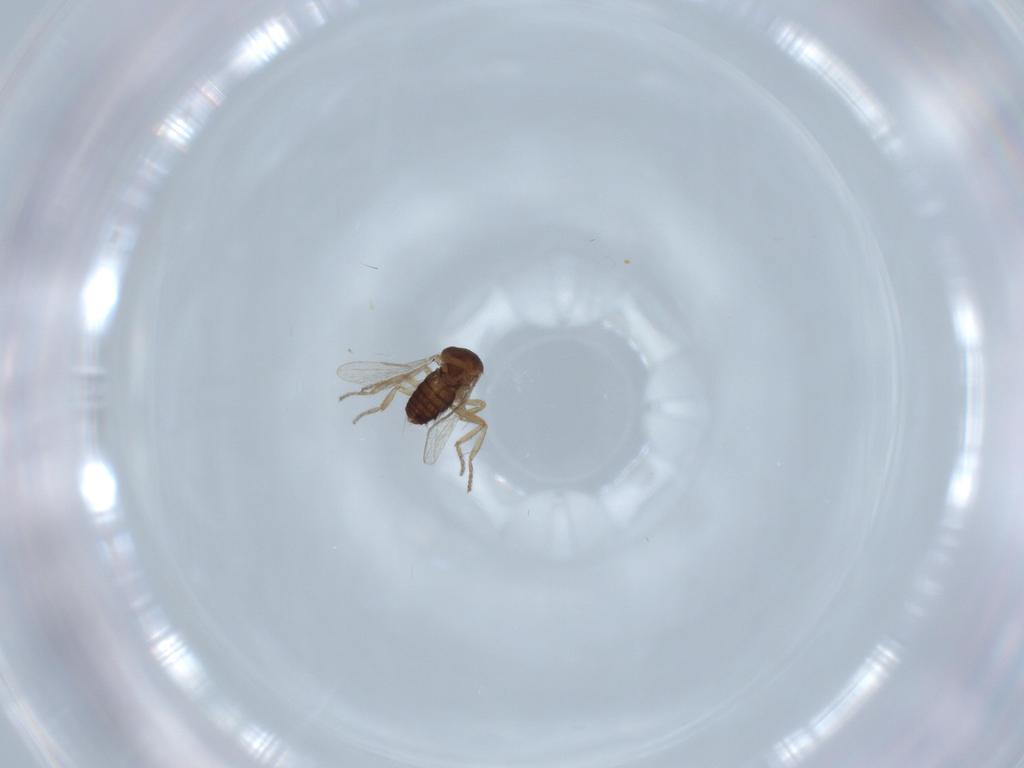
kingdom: Animalia
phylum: Arthropoda
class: Insecta
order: Diptera
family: Ceratopogonidae
